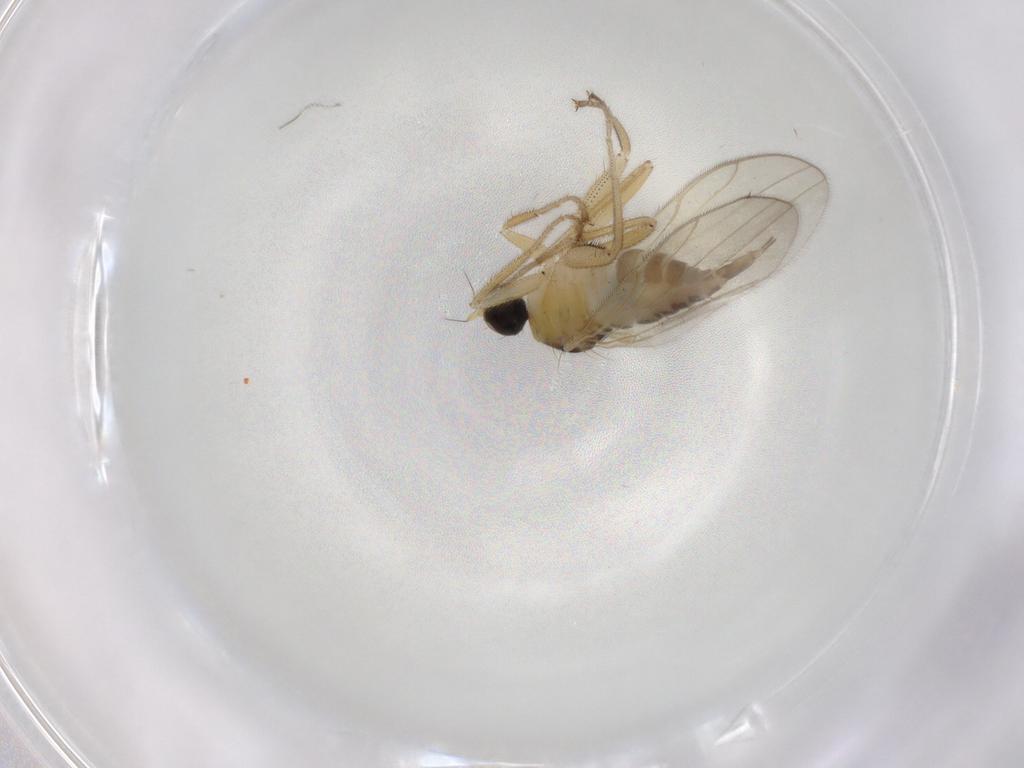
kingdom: Animalia
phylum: Arthropoda
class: Insecta
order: Diptera
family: Hybotidae
